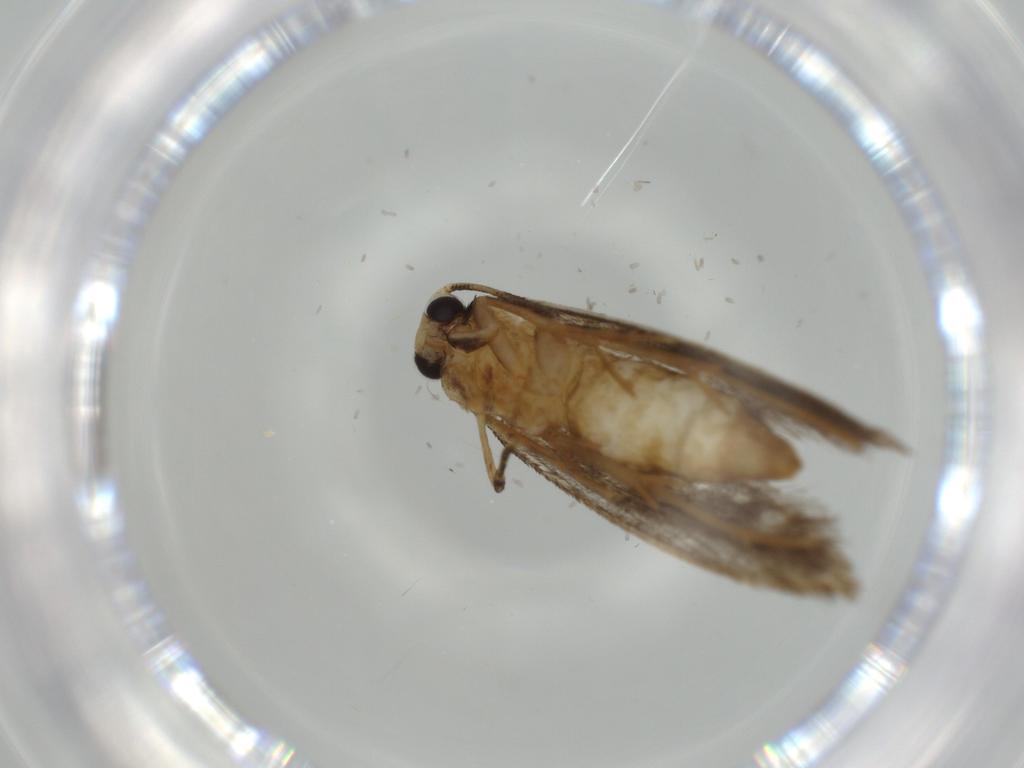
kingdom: Animalia
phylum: Arthropoda
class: Insecta
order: Lepidoptera
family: Tineidae
